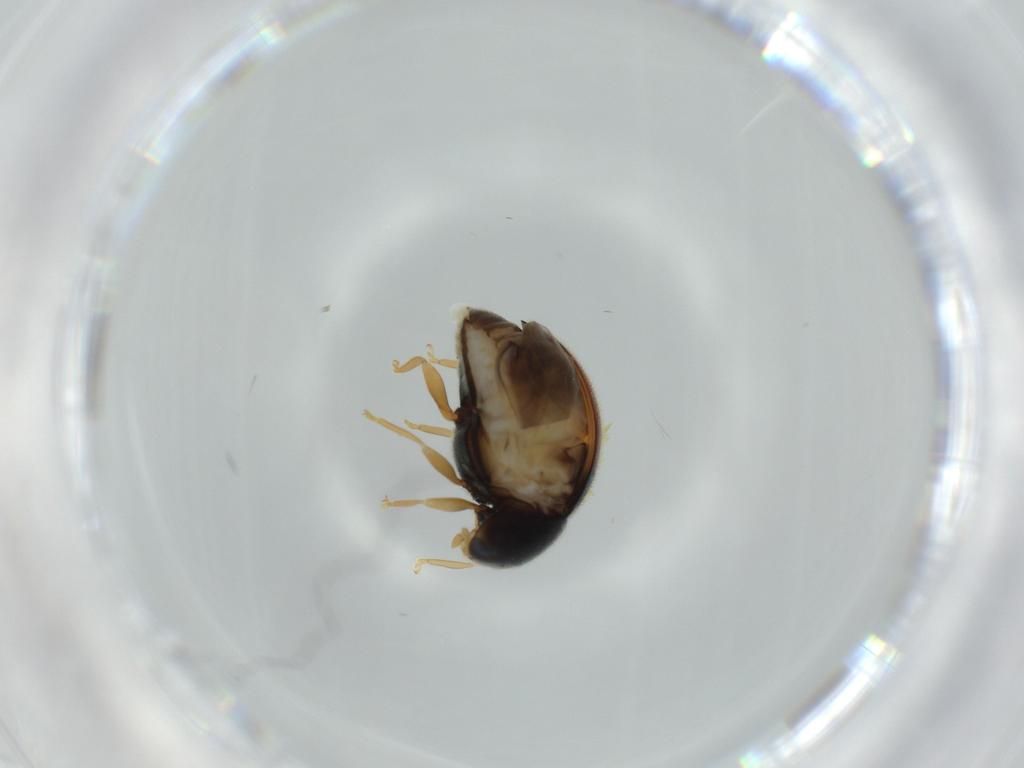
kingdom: Animalia
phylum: Arthropoda
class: Insecta
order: Coleoptera
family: Coccinellidae
